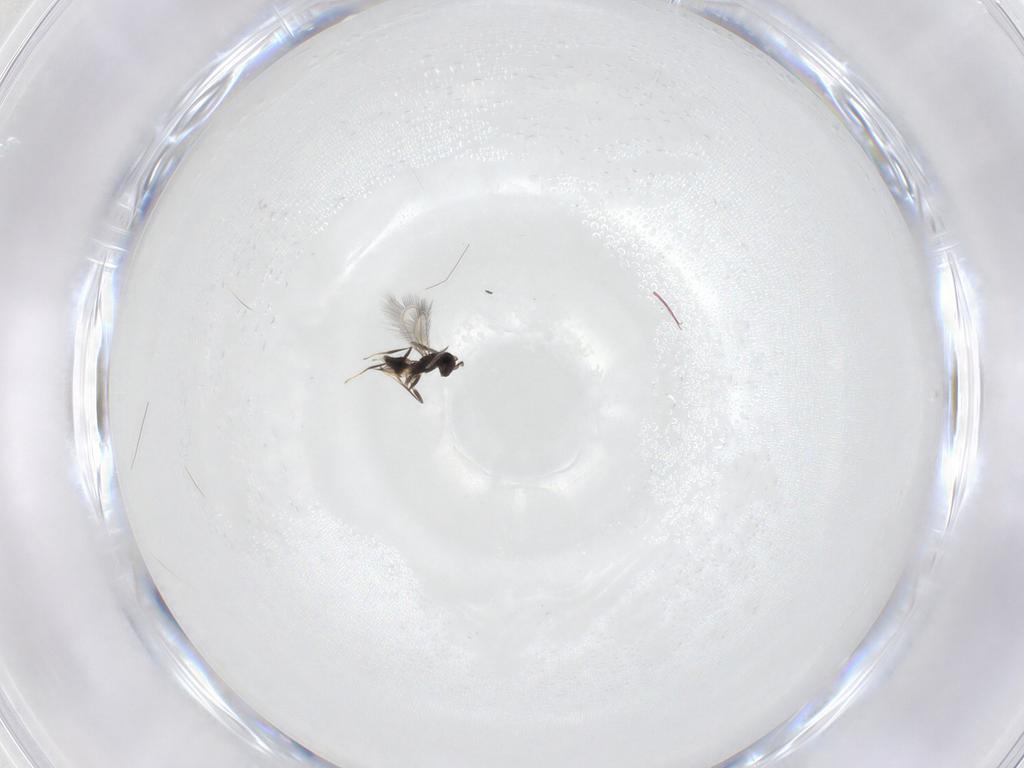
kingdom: Animalia
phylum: Arthropoda
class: Insecta
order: Hymenoptera
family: Mymaridae
